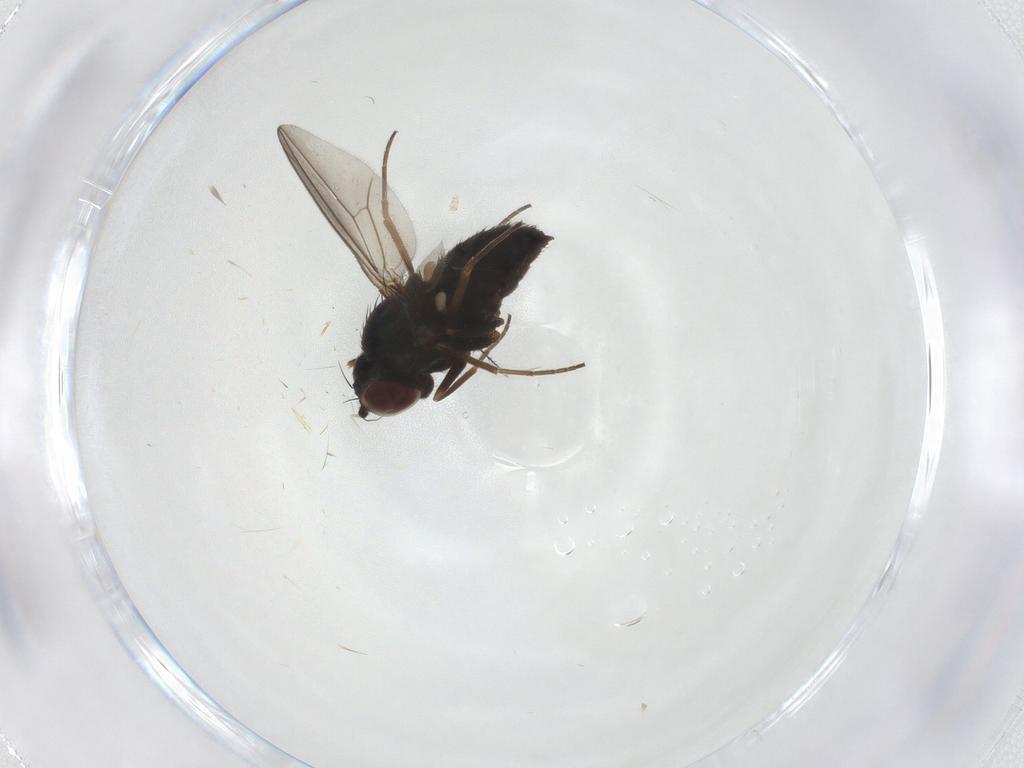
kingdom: Animalia
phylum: Arthropoda
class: Insecta
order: Diptera
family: Dolichopodidae
